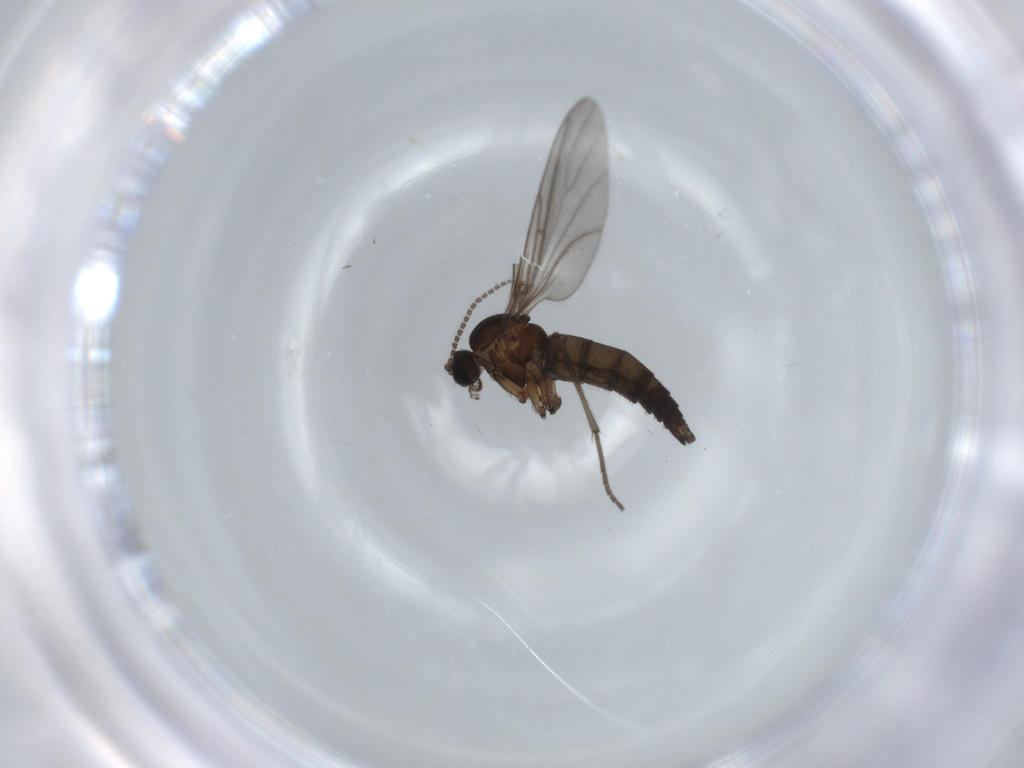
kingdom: Animalia
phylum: Arthropoda
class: Insecta
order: Diptera
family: Sciaridae
